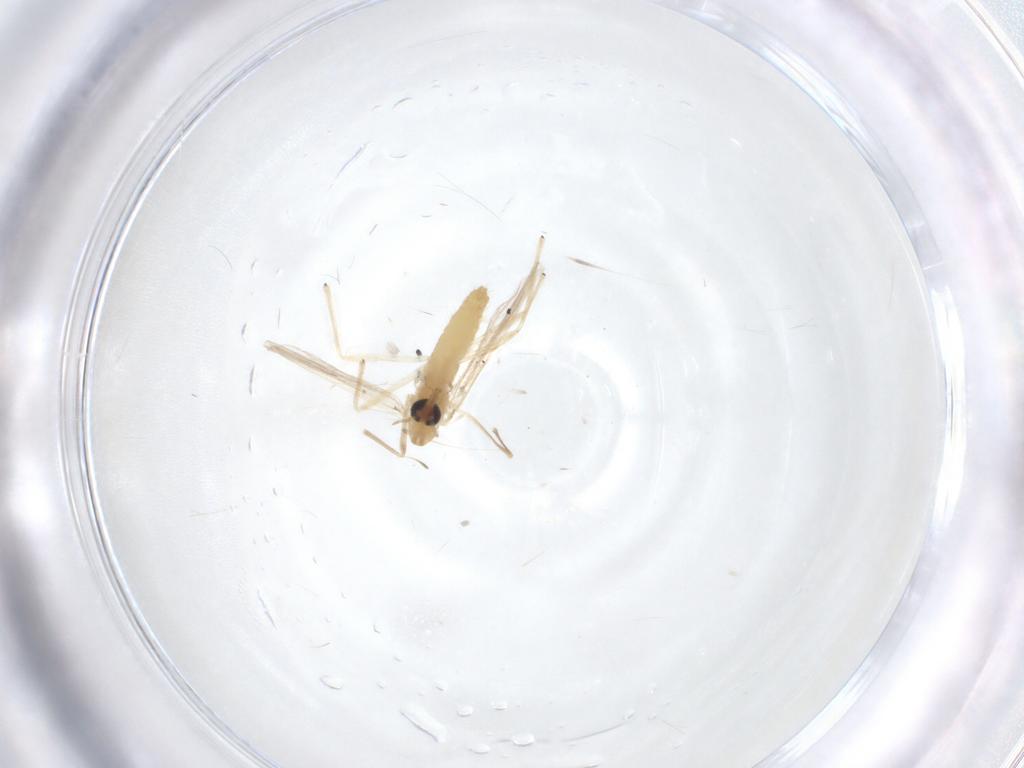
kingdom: Animalia
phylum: Arthropoda
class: Insecta
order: Diptera
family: Chironomidae
